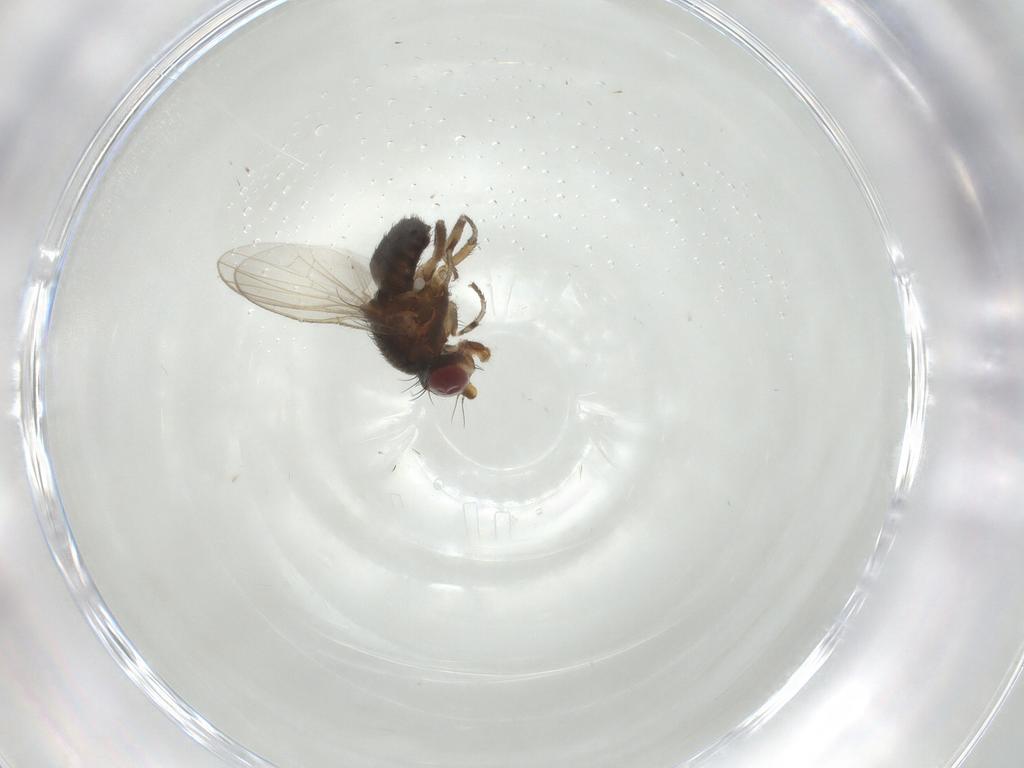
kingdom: Animalia
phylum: Arthropoda
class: Insecta
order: Diptera
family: Heleomyzidae
